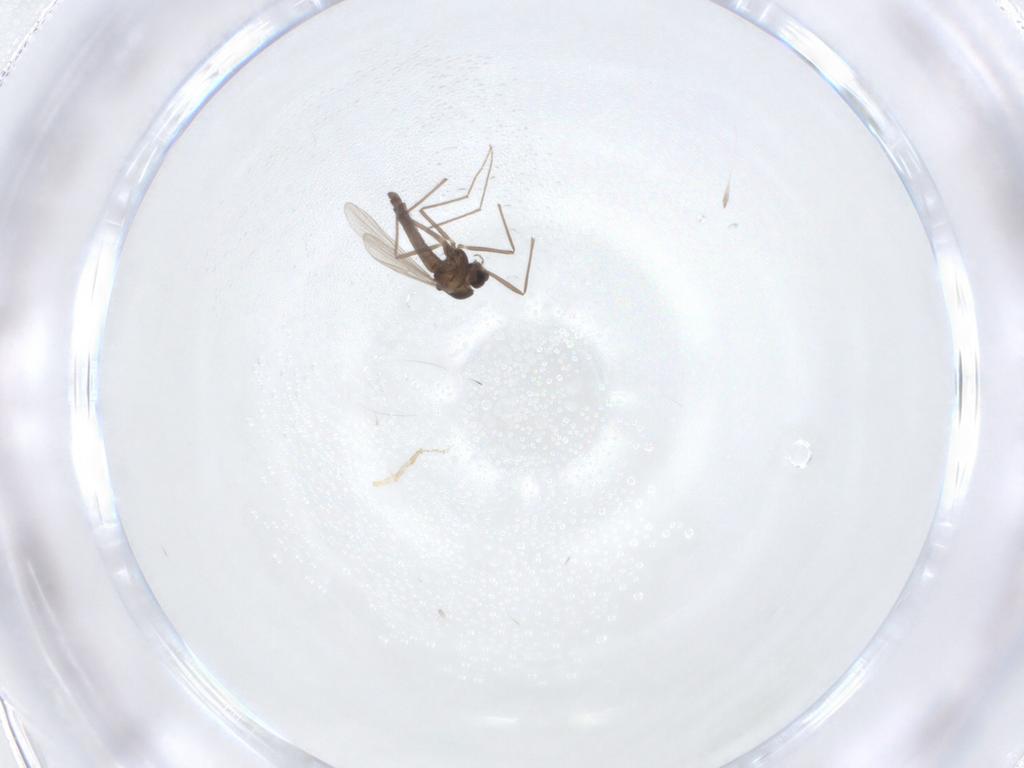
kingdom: Animalia
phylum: Arthropoda
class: Insecta
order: Diptera
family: Chironomidae
